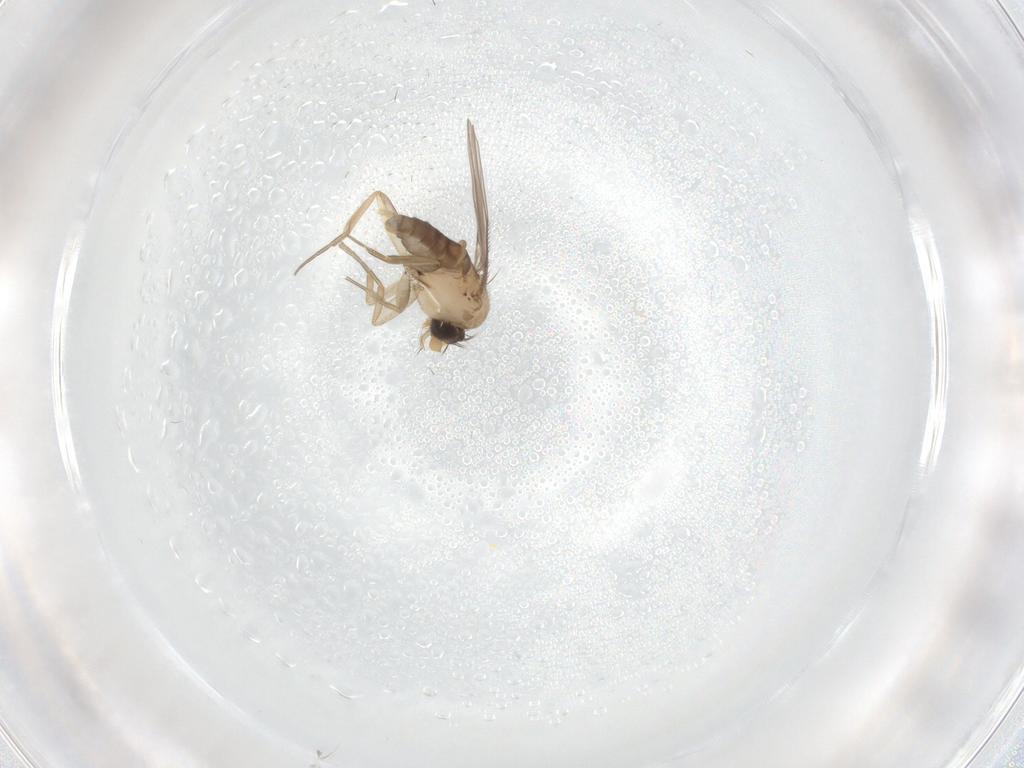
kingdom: Animalia
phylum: Arthropoda
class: Insecta
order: Diptera
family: Phoridae
